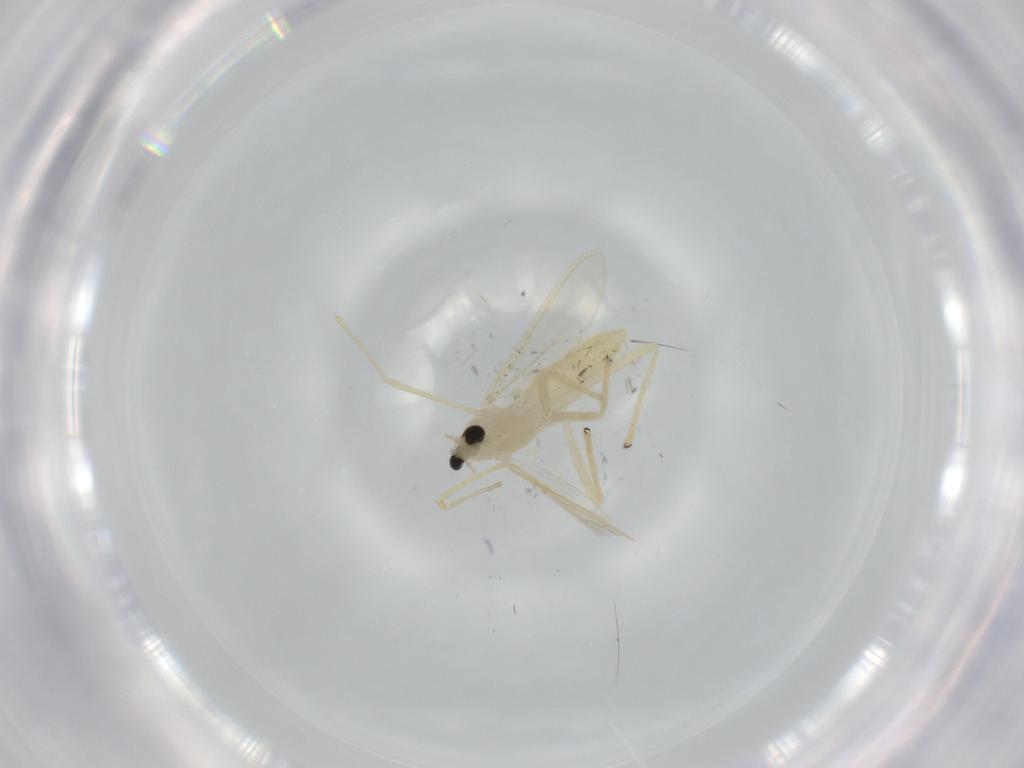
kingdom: Animalia
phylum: Arthropoda
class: Insecta
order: Diptera
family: Chironomidae
